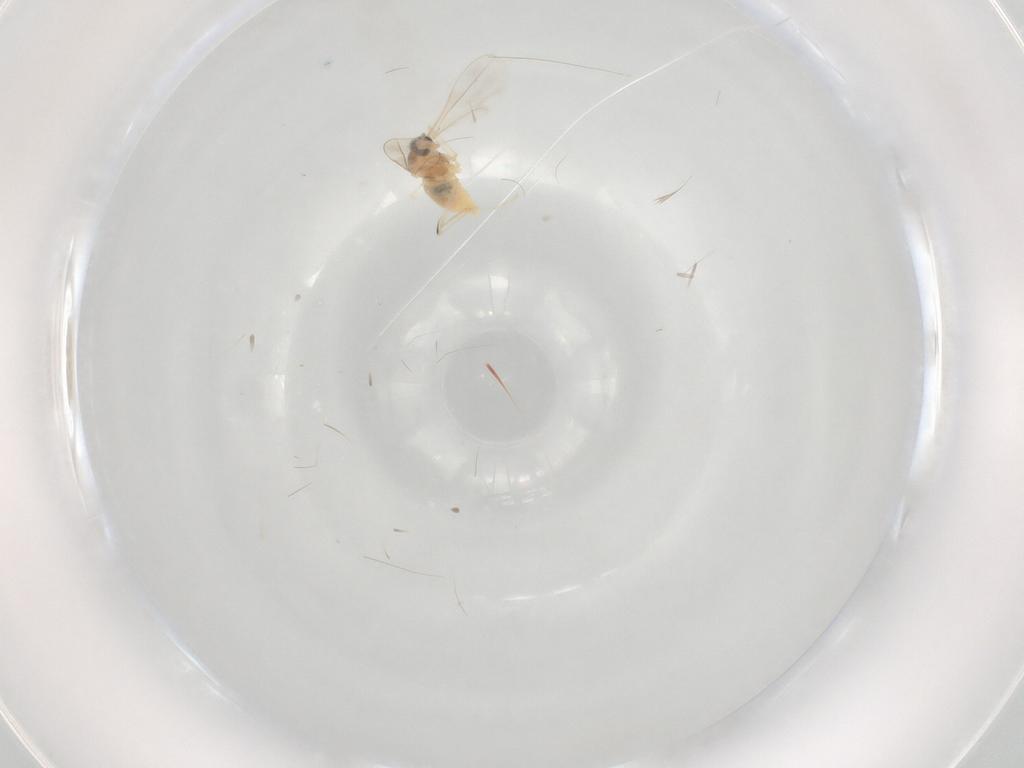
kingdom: Animalia
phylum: Arthropoda
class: Insecta
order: Diptera
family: Cecidomyiidae
